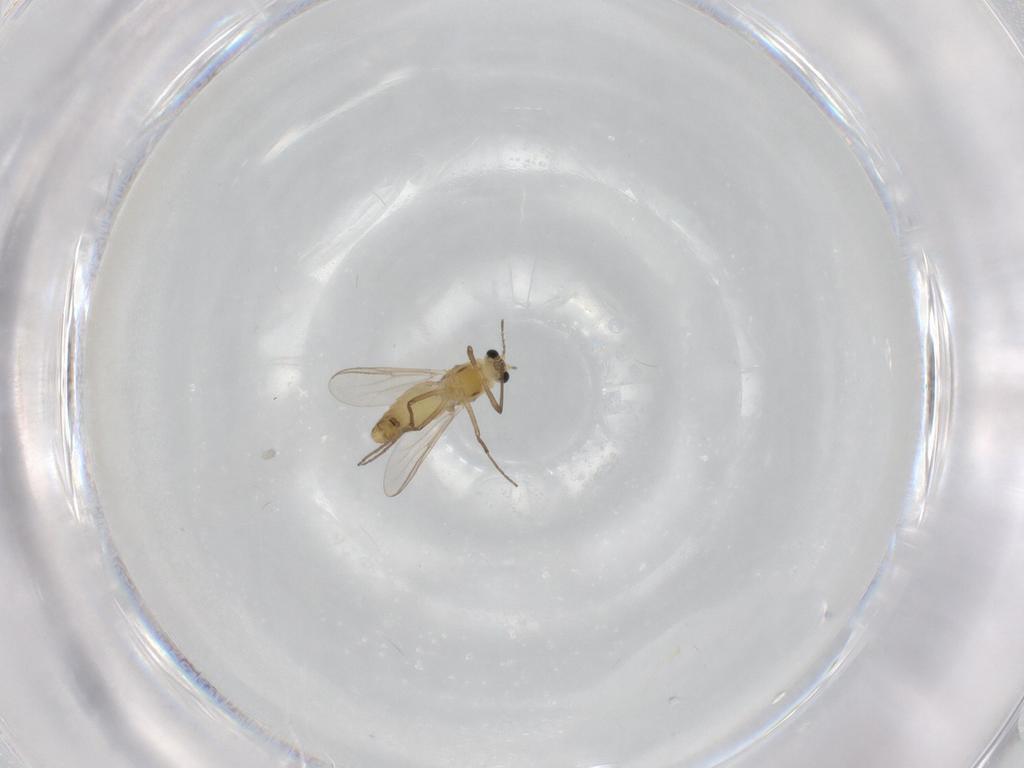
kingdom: Animalia
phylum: Arthropoda
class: Insecta
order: Diptera
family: Chironomidae
